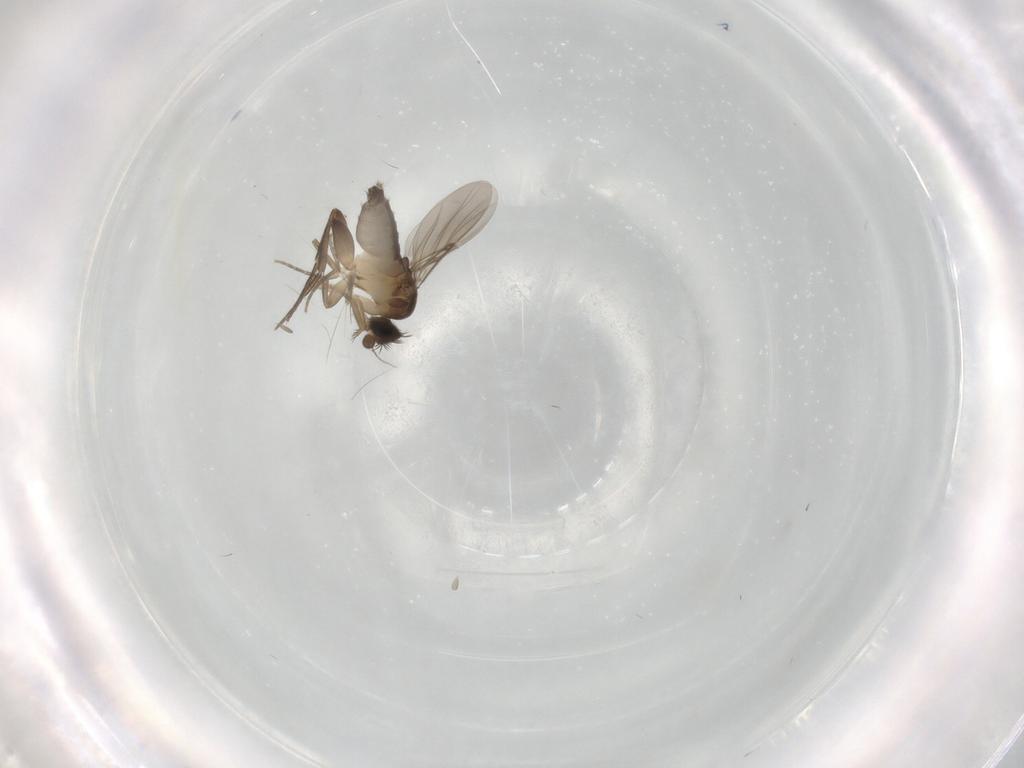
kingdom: Animalia
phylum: Arthropoda
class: Insecta
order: Diptera
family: Phoridae
